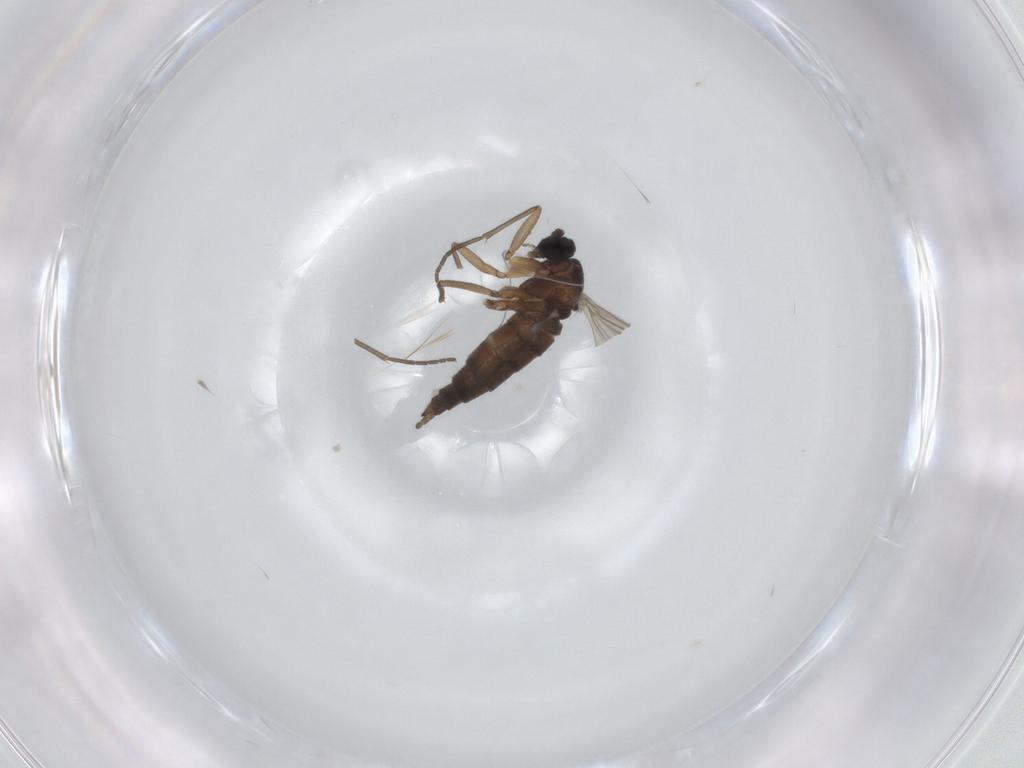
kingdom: Animalia
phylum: Arthropoda
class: Insecta
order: Diptera
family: Sciaridae
